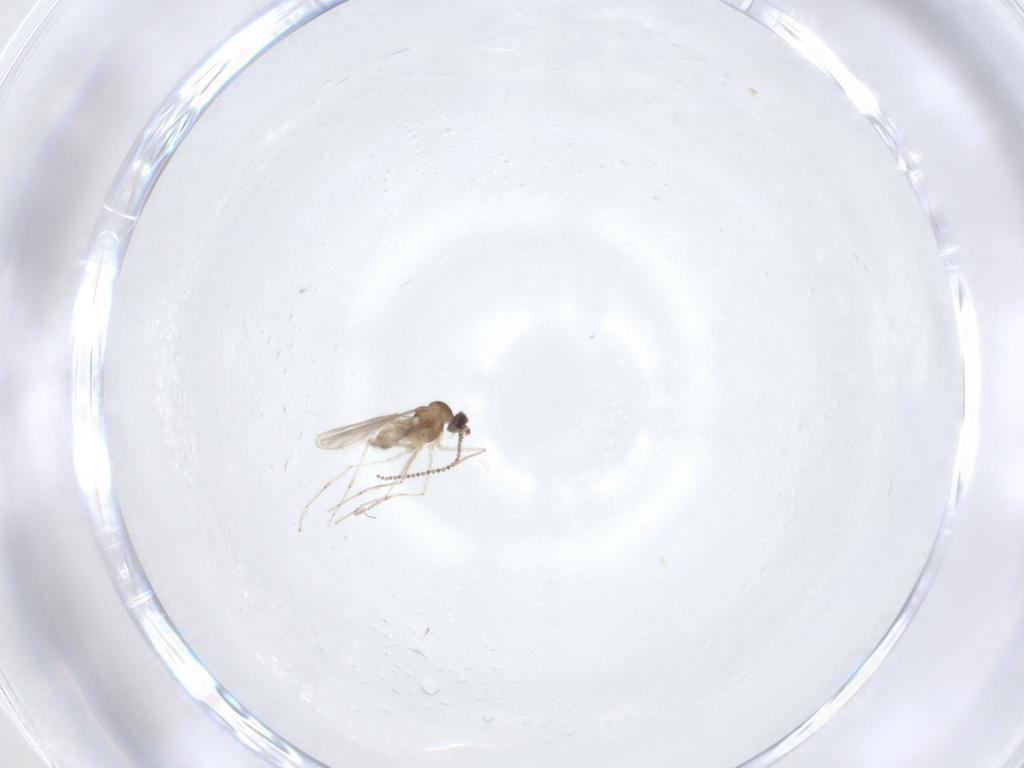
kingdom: Animalia
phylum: Arthropoda
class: Insecta
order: Diptera
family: Cecidomyiidae
